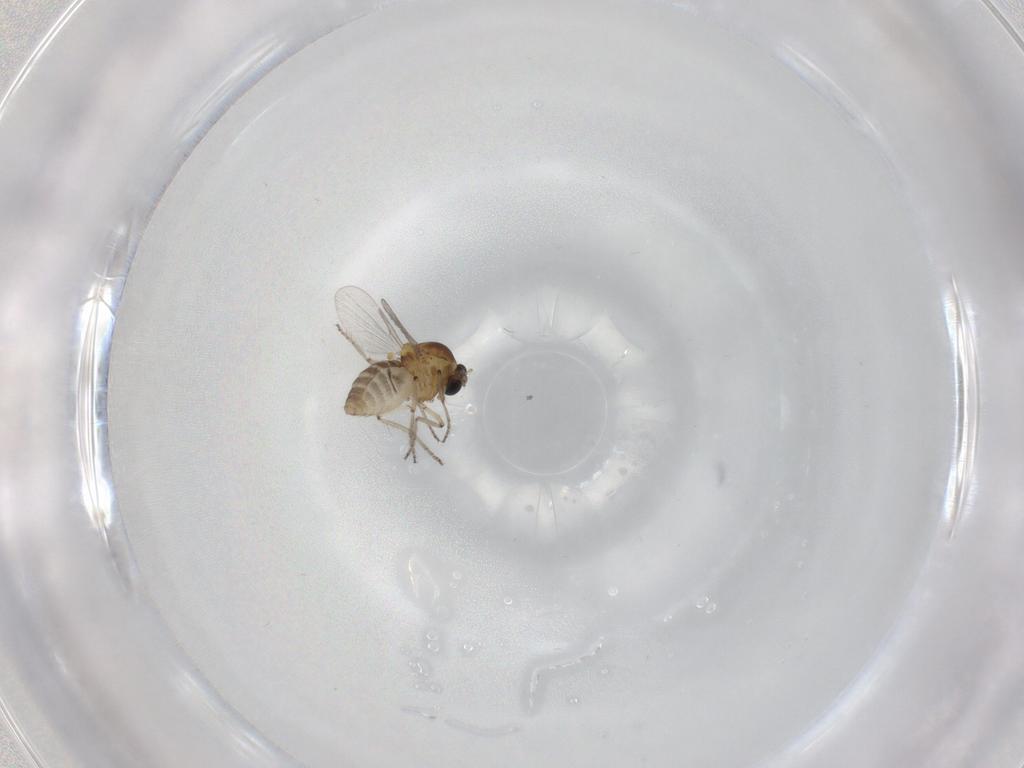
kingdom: Animalia
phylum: Arthropoda
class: Insecta
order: Diptera
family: Ceratopogonidae
